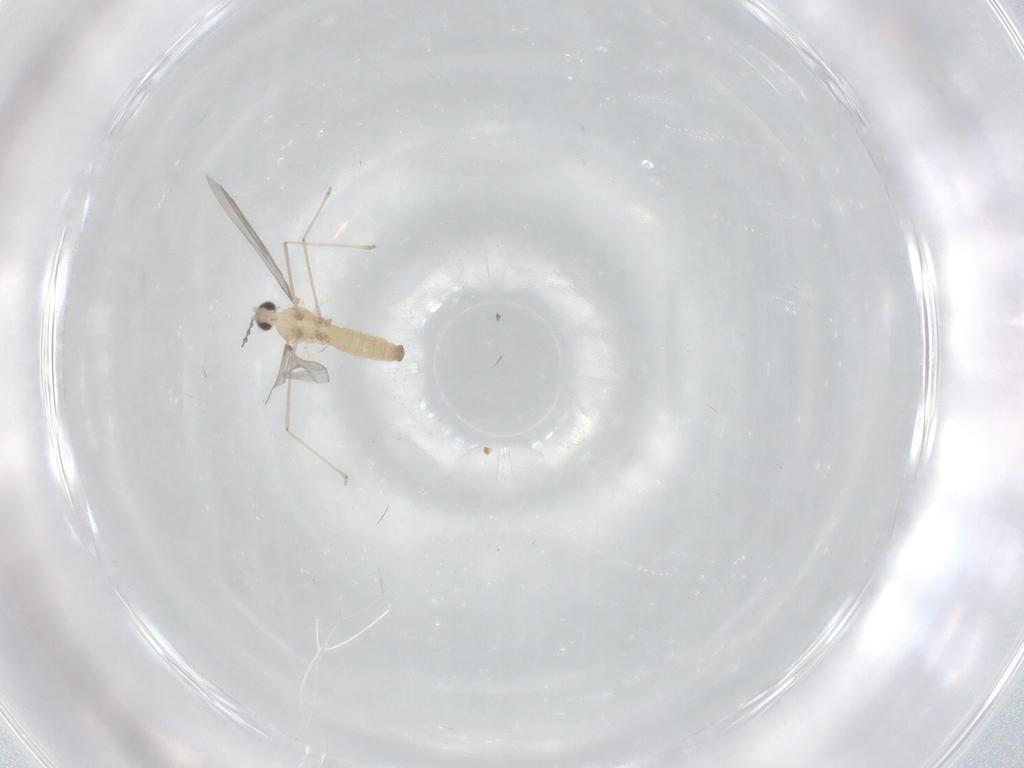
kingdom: Animalia
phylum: Arthropoda
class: Insecta
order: Diptera
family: Cecidomyiidae
